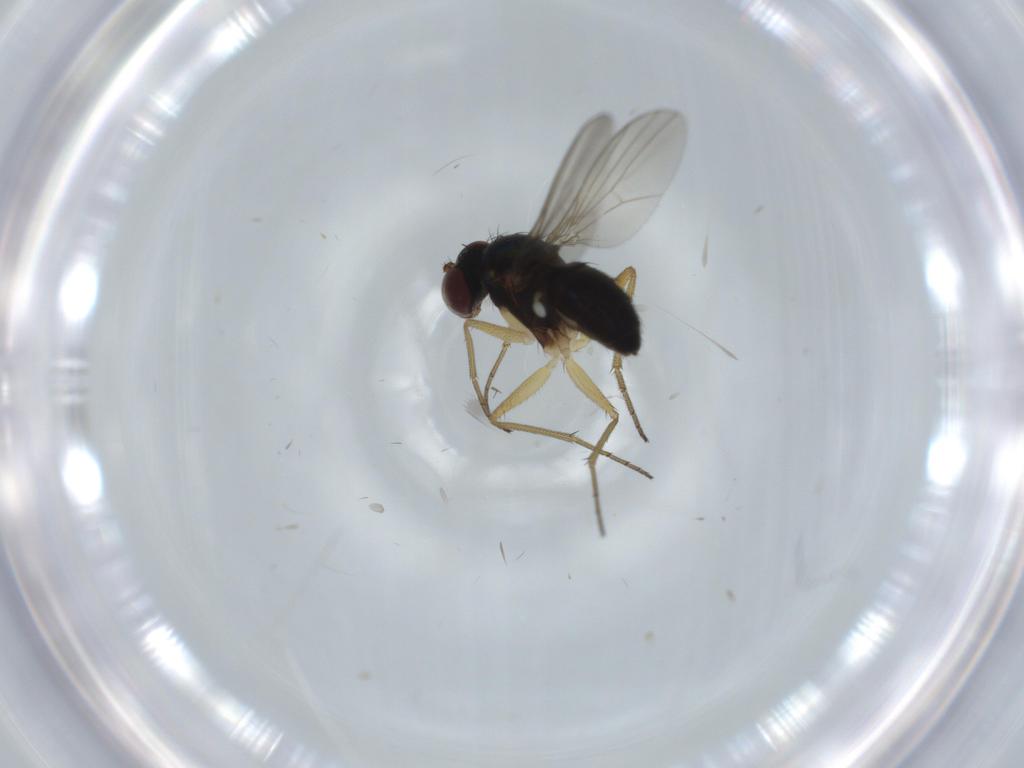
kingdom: Animalia
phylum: Arthropoda
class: Insecta
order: Diptera
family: Dolichopodidae
